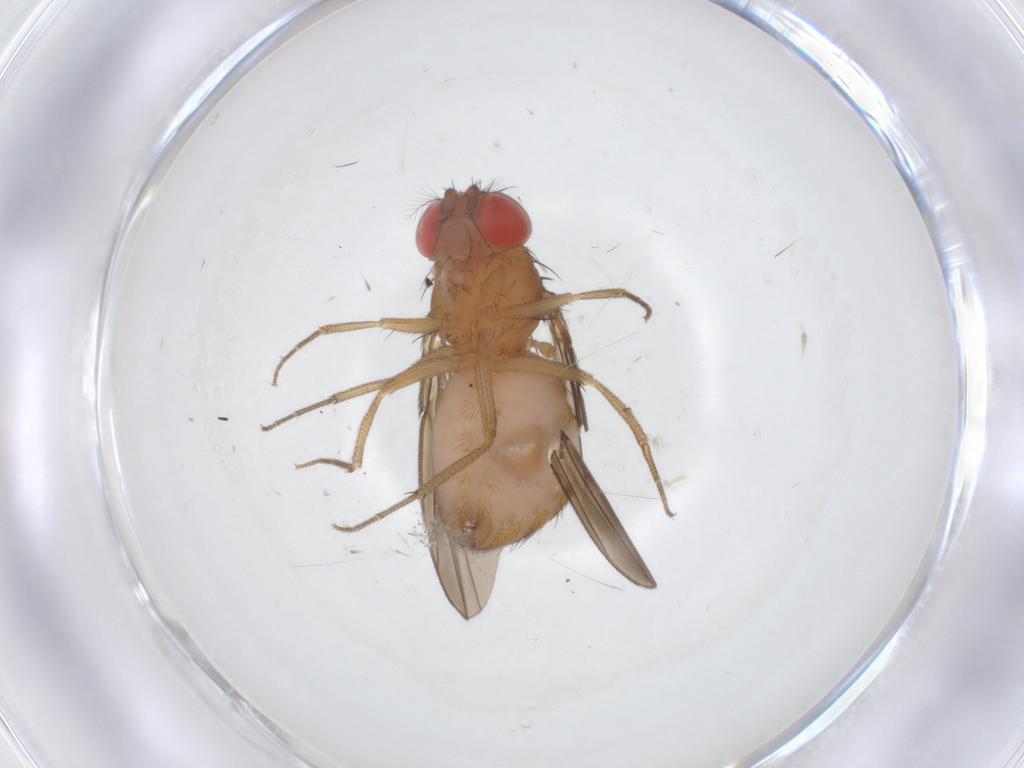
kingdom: Animalia
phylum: Arthropoda
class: Insecta
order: Diptera
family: Drosophilidae
